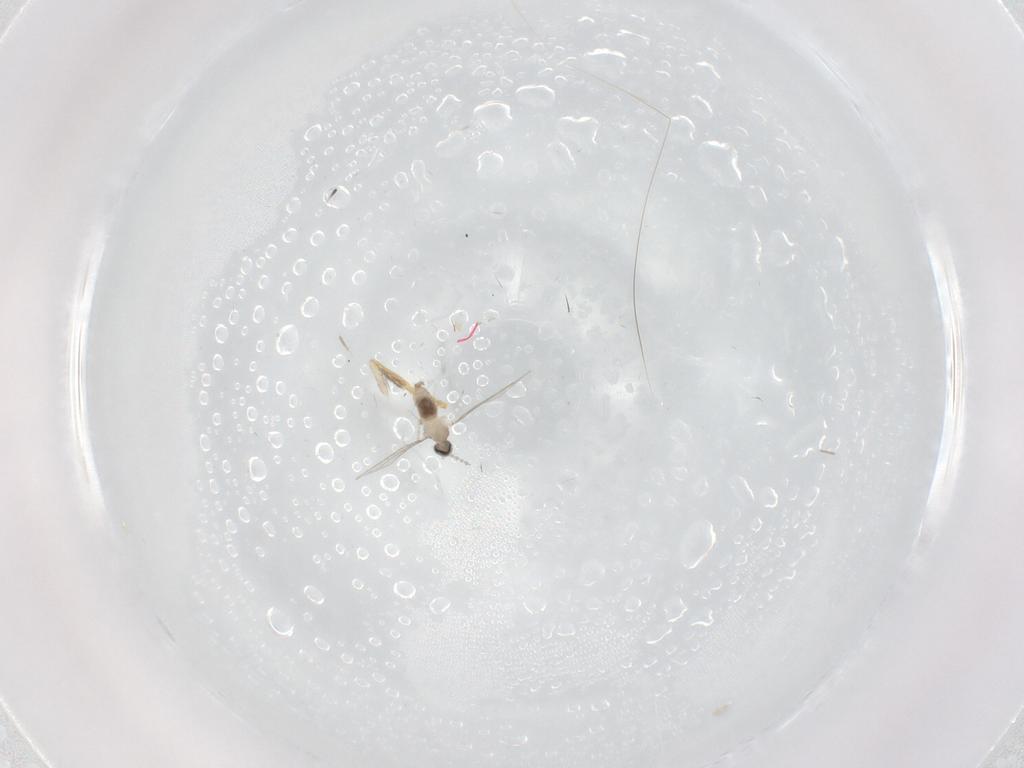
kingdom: Animalia
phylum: Arthropoda
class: Insecta
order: Diptera
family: Psychodidae
